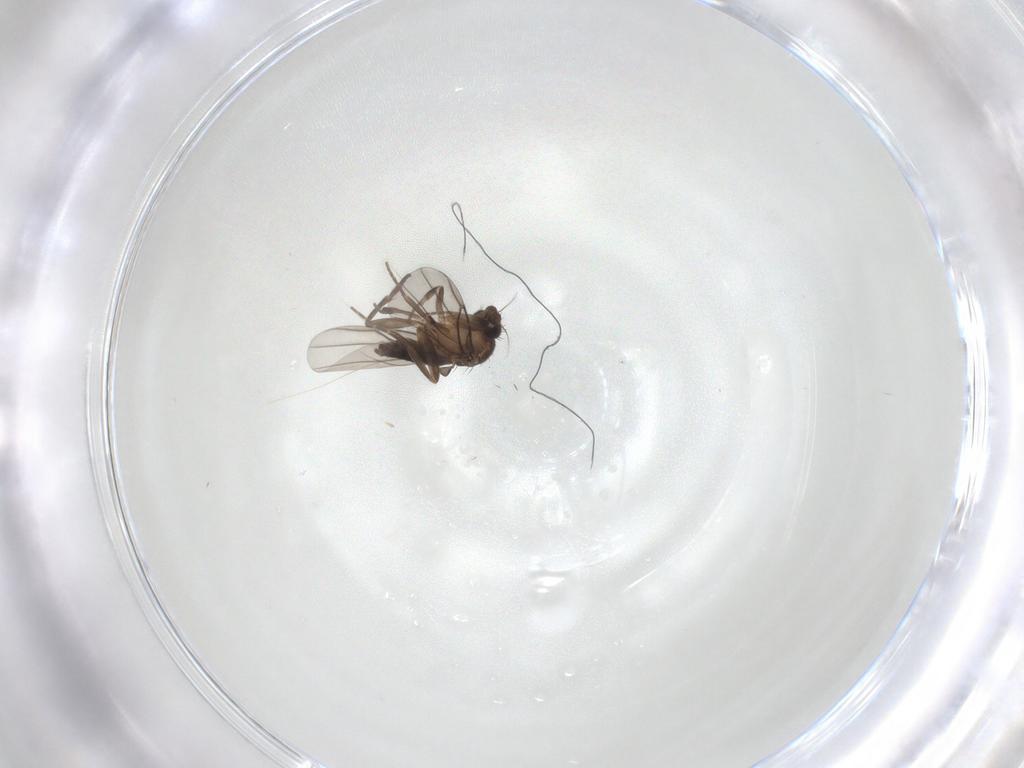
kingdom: Animalia
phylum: Arthropoda
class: Insecta
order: Diptera
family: Phoridae
